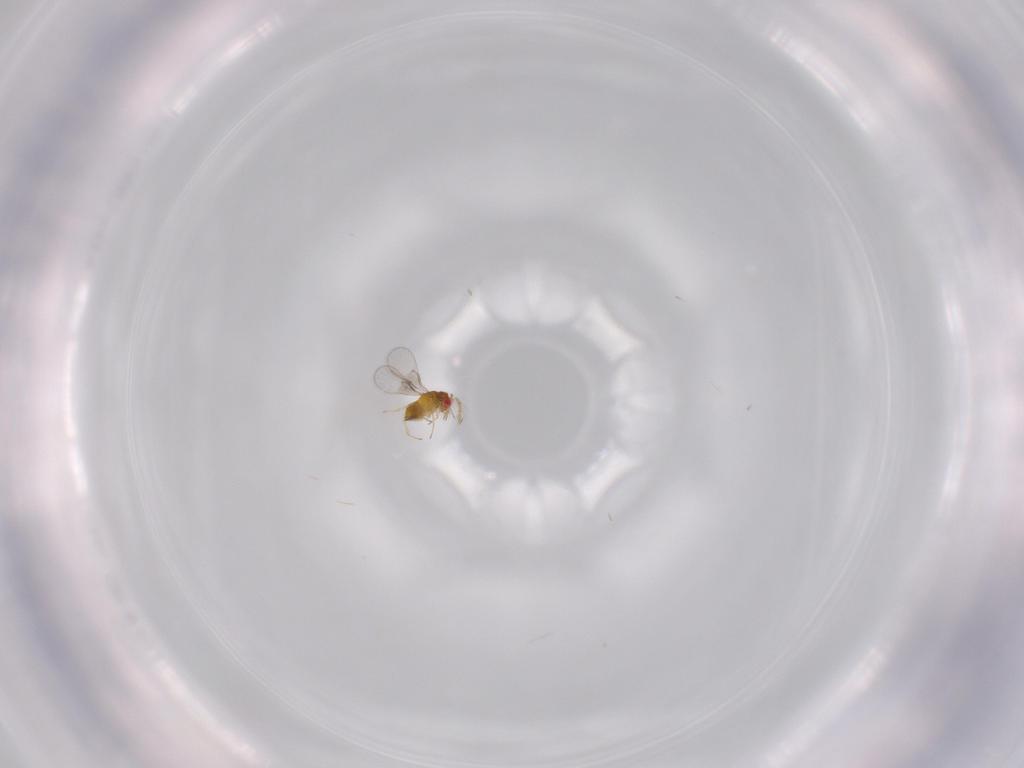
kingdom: Animalia
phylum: Arthropoda
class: Insecta
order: Hymenoptera
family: Trichogrammatidae
